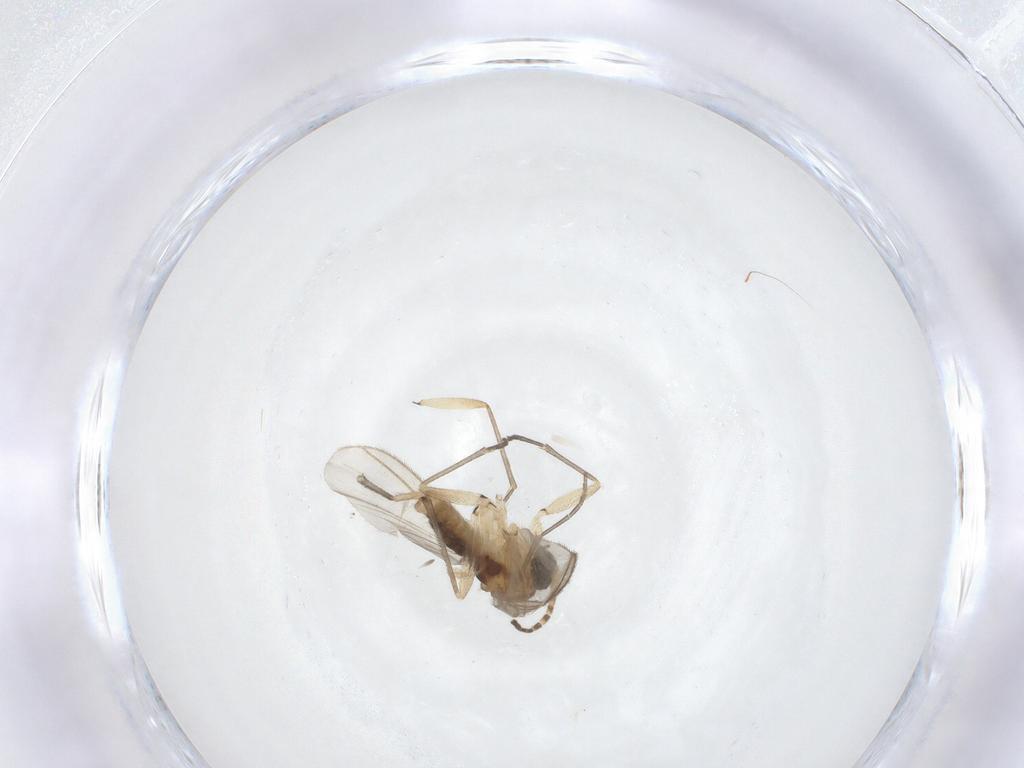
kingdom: Animalia
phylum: Arthropoda
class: Insecta
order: Diptera
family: Sciaridae
